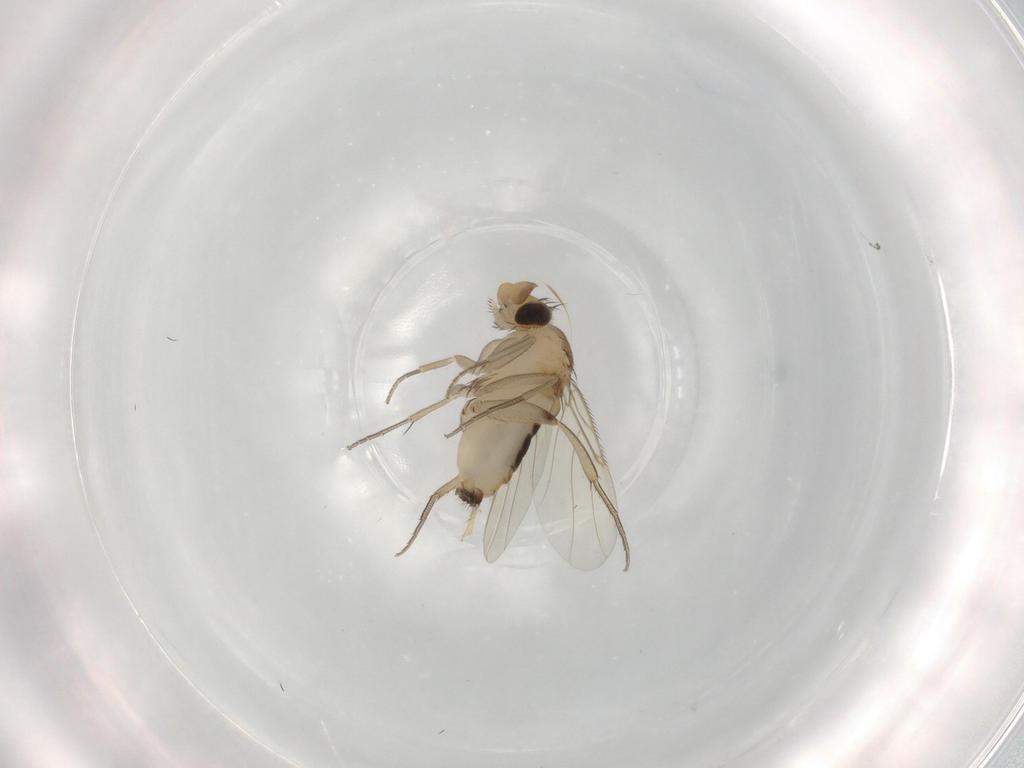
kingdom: Animalia
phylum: Arthropoda
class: Insecta
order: Diptera
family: Phoridae
